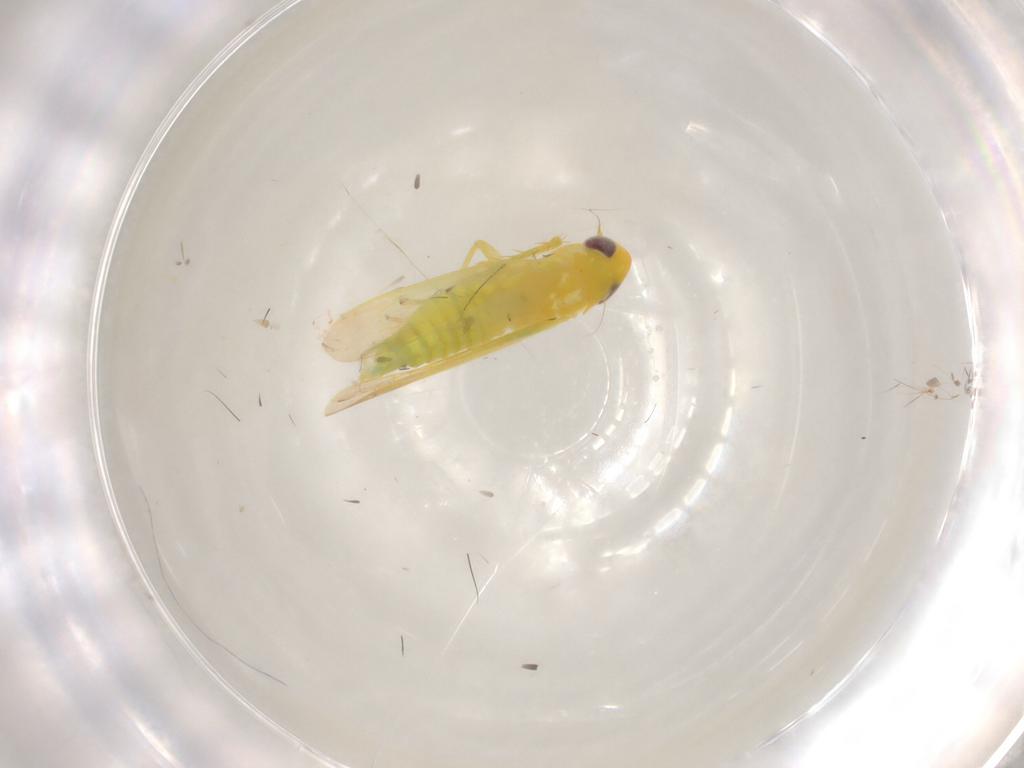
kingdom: Animalia
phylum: Arthropoda
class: Insecta
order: Hemiptera
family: Cicadellidae
